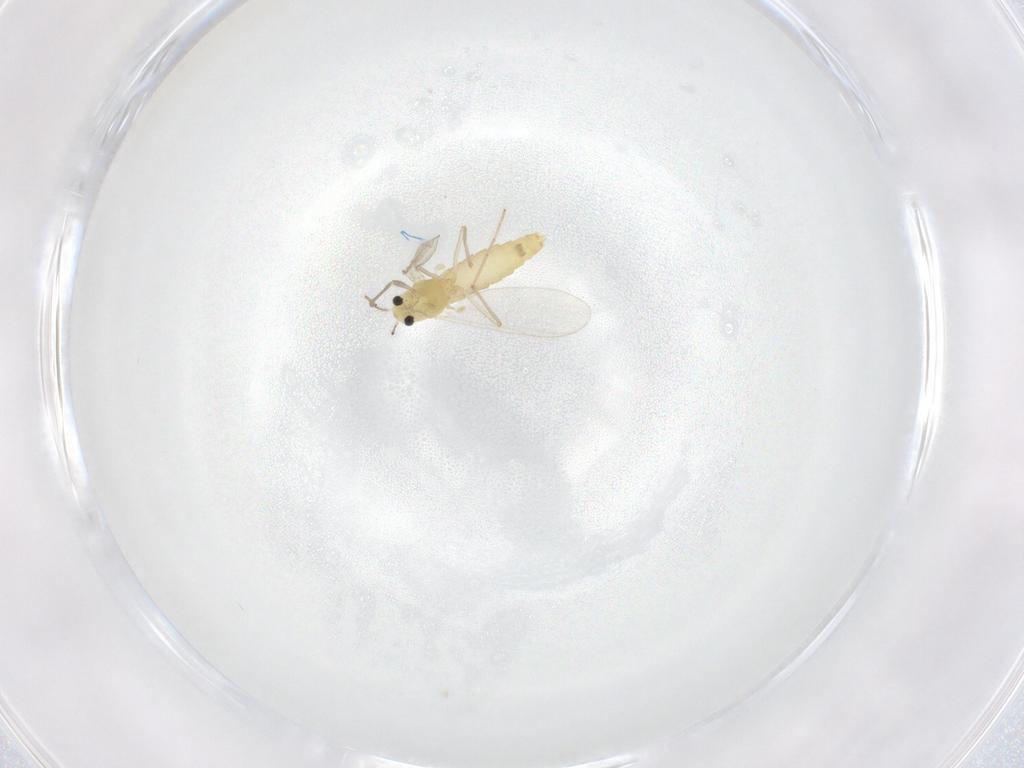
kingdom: Animalia
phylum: Arthropoda
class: Insecta
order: Diptera
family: Chironomidae
